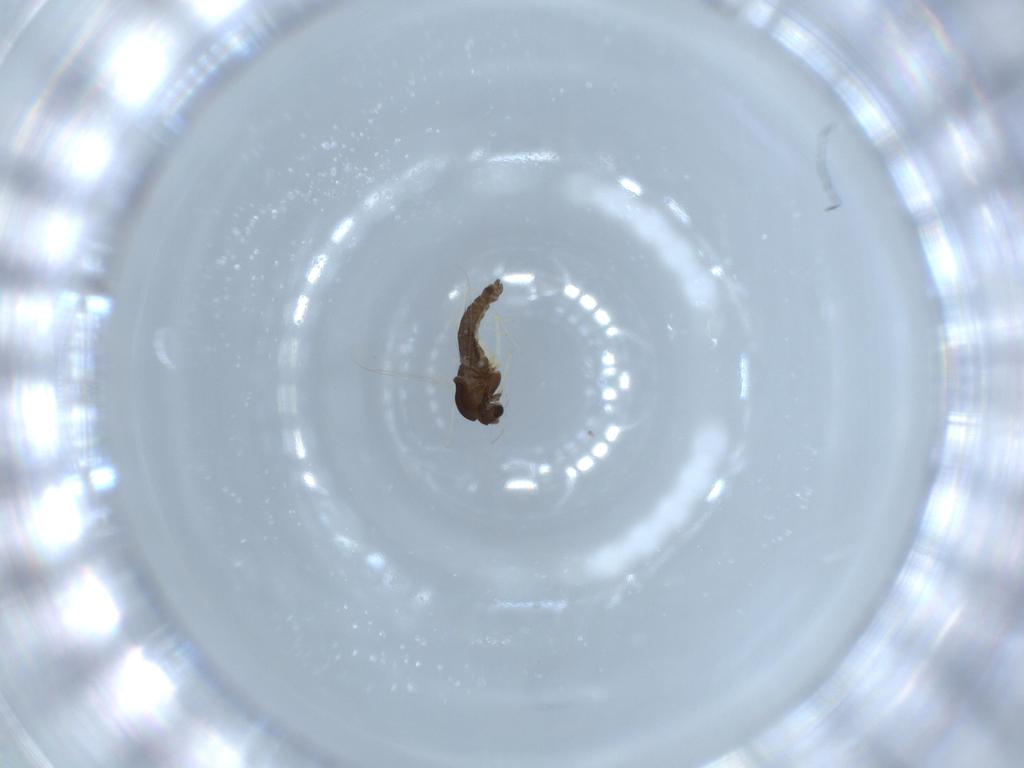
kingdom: Animalia
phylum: Arthropoda
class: Insecta
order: Diptera
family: Chironomidae
